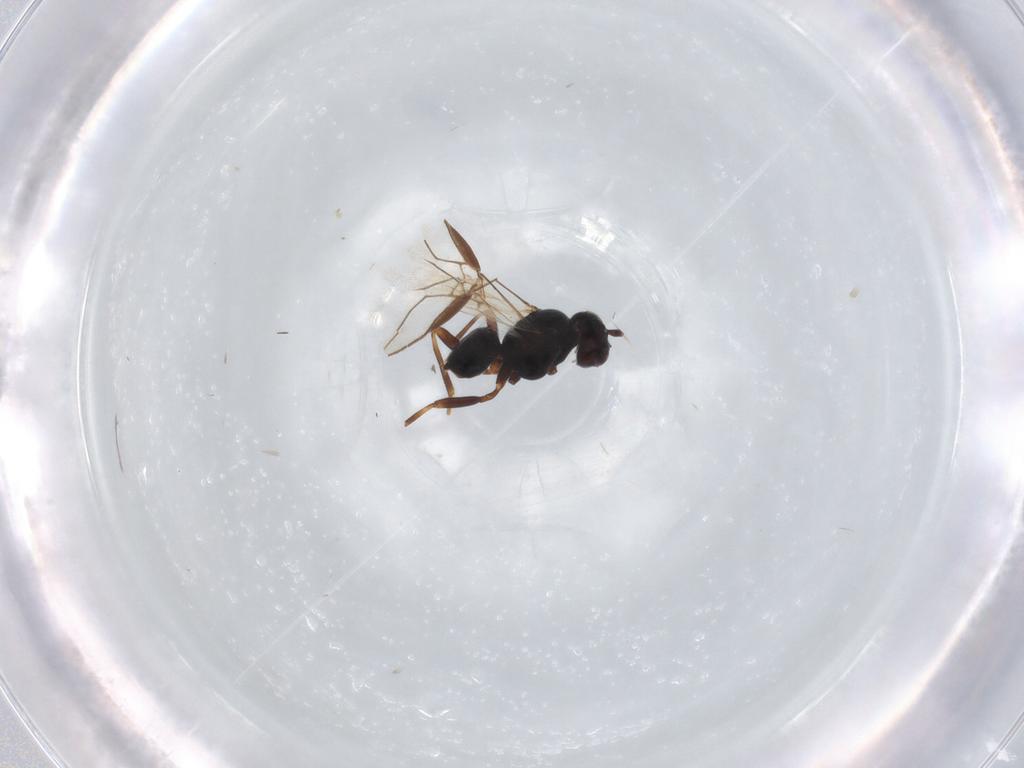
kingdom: Animalia
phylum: Arthropoda
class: Insecta
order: Hymenoptera
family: Braconidae
